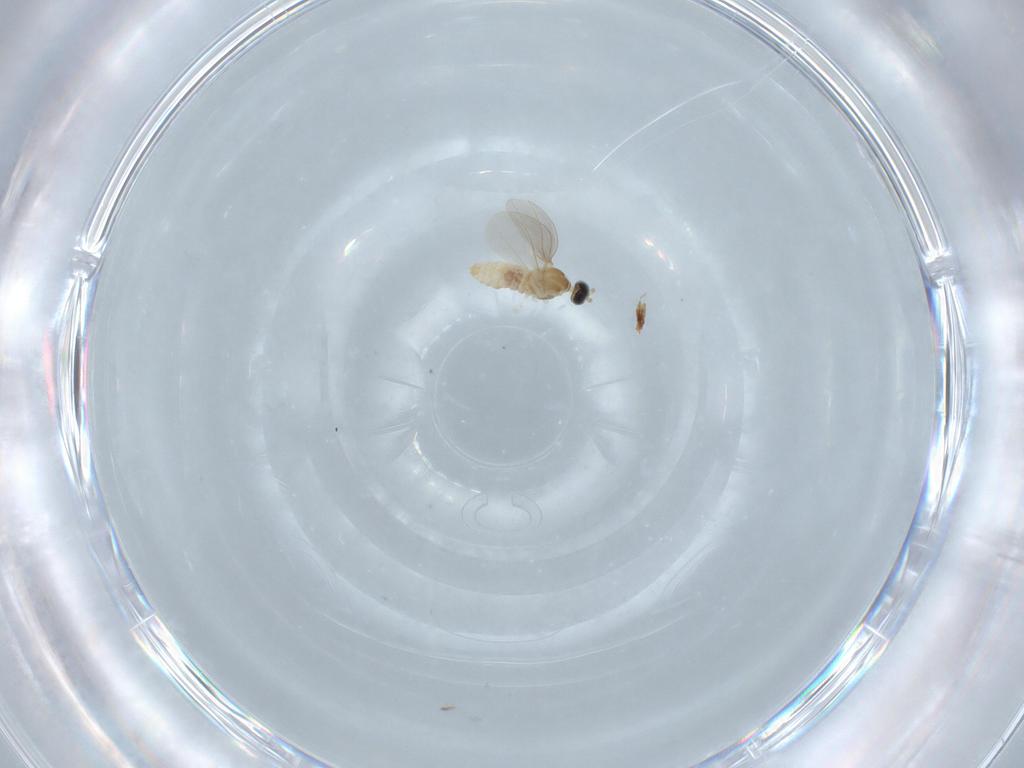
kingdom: Animalia
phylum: Arthropoda
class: Insecta
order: Diptera
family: Cecidomyiidae
